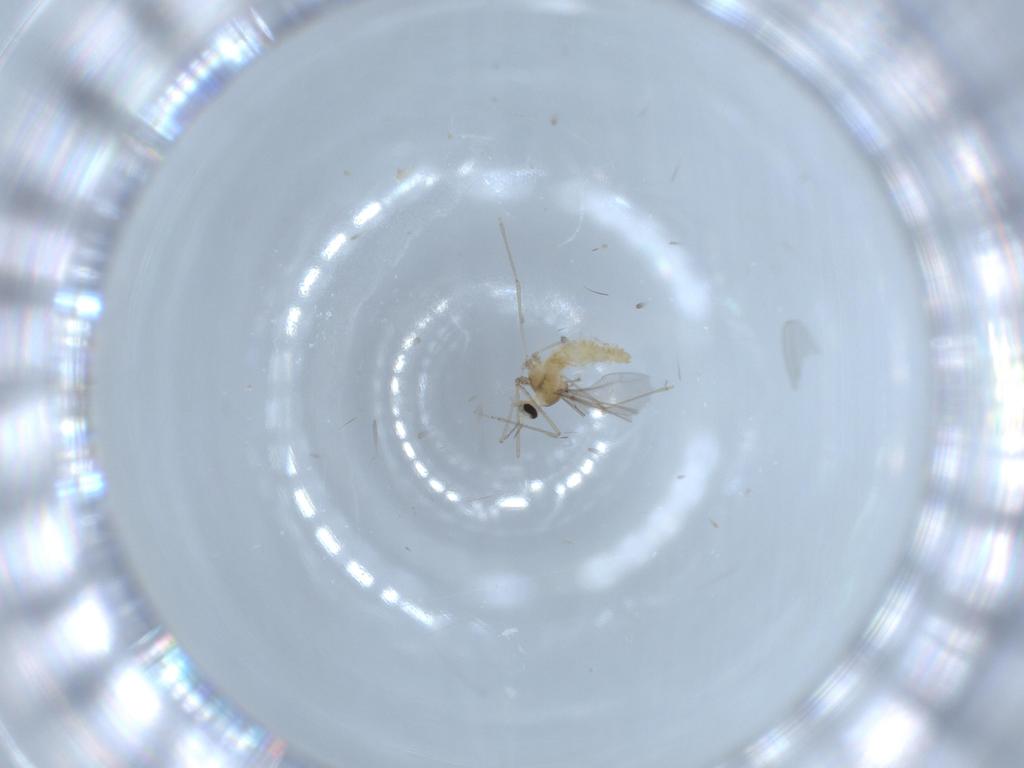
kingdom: Animalia
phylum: Arthropoda
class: Insecta
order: Diptera
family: Cecidomyiidae
